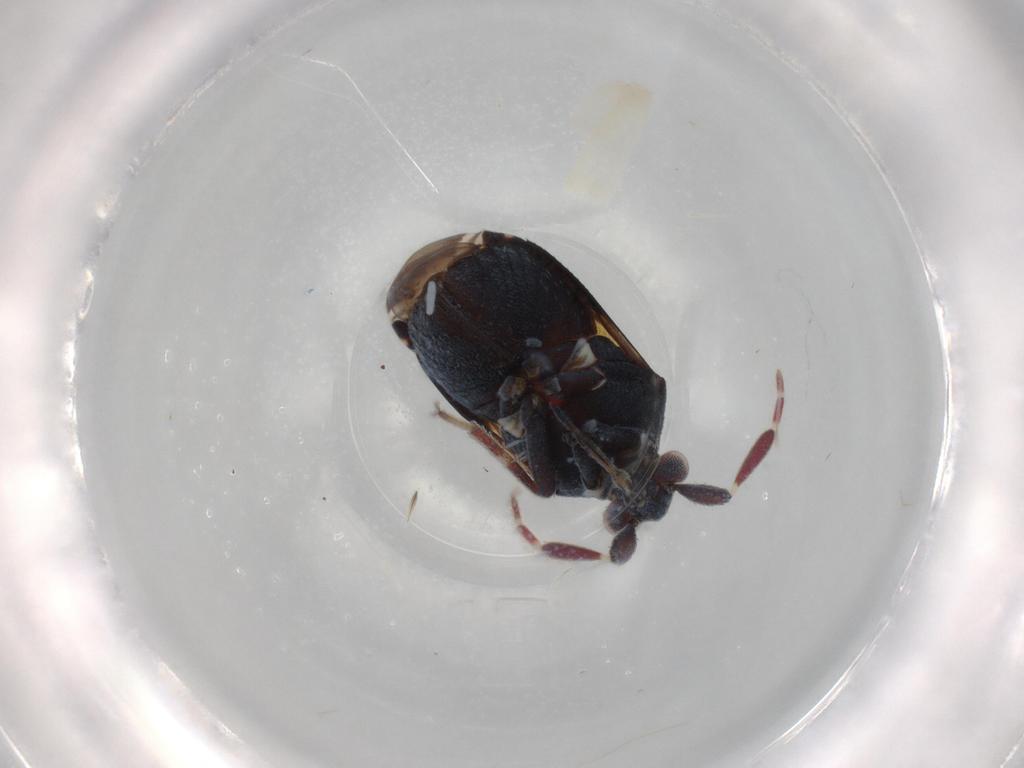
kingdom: Animalia
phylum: Arthropoda
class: Insecta
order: Hemiptera
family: Miridae
